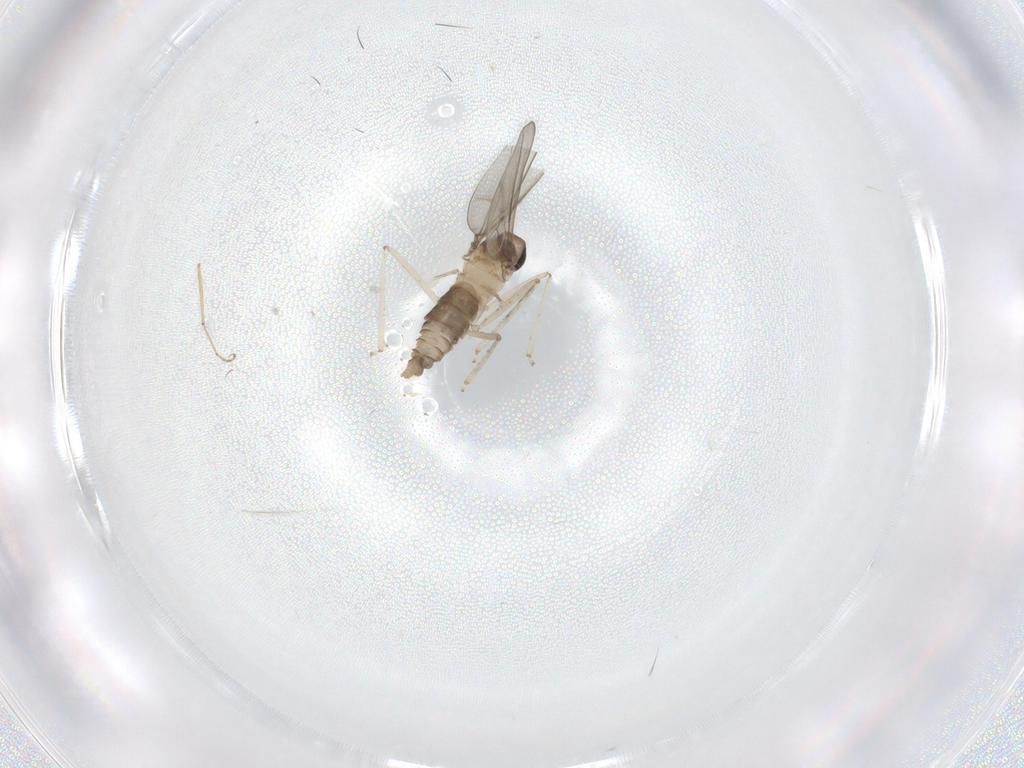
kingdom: Animalia
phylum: Arthropoda
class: Insecta
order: Diptera
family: Cecidomyiidae
